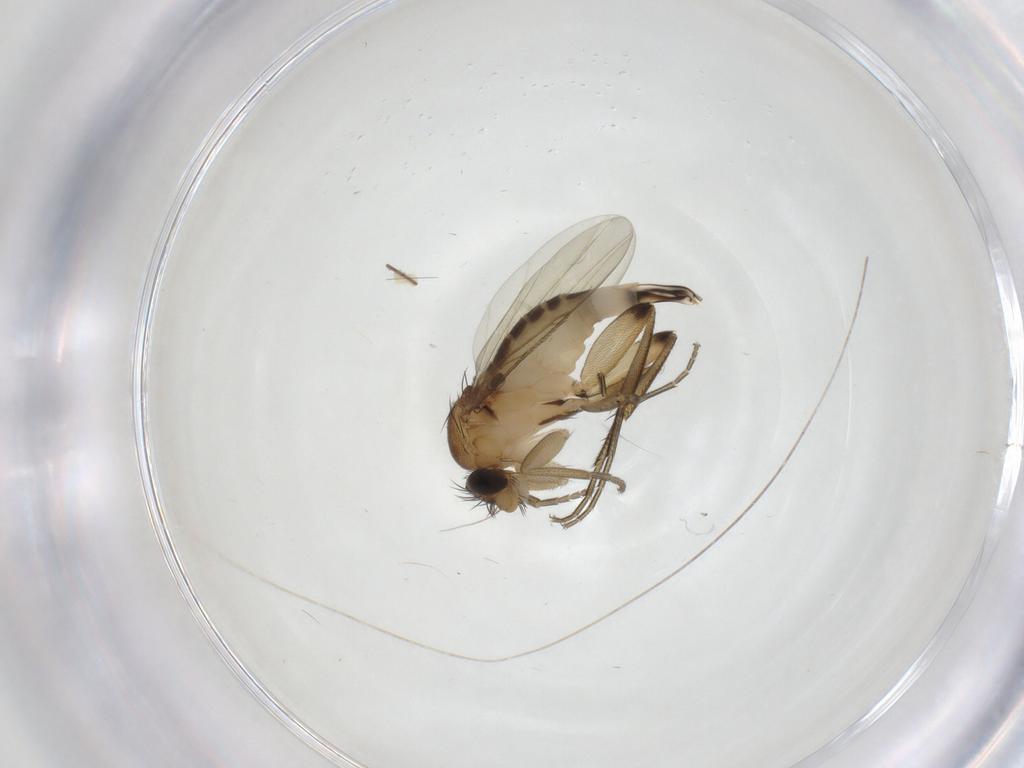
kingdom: Animalia
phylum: Arthropoda
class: Insecta
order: Diptera
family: Phoridae
